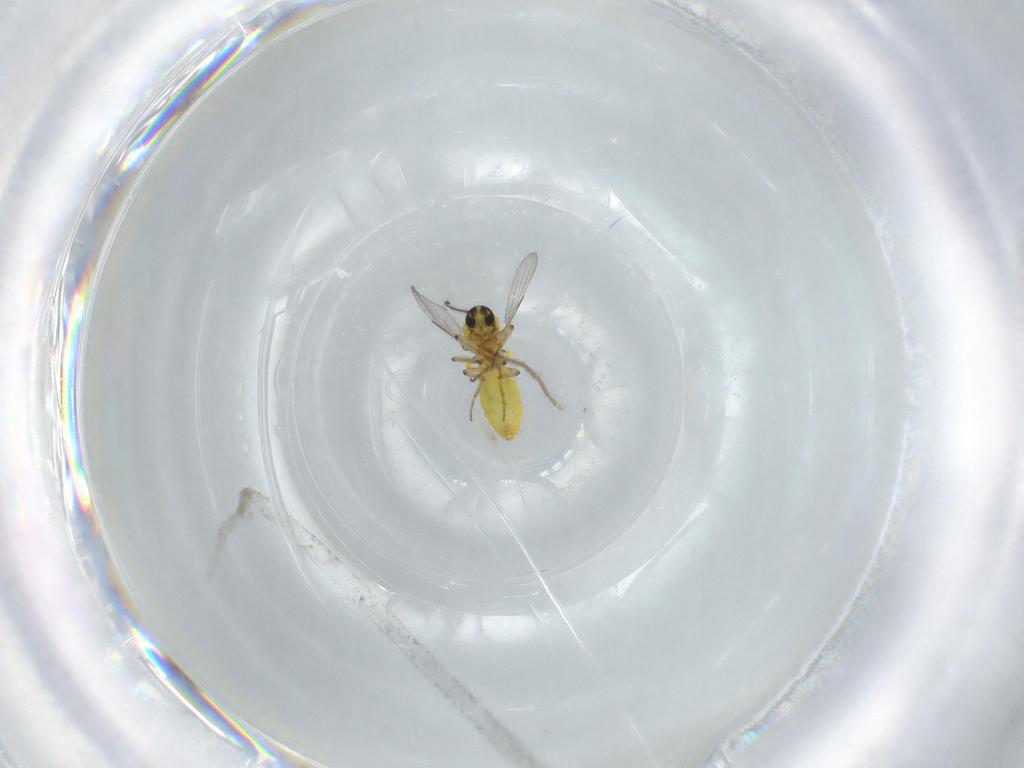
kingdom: Animalia
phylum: Arthropoda
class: Insecta
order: Diptera
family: Ceratopogonidae
